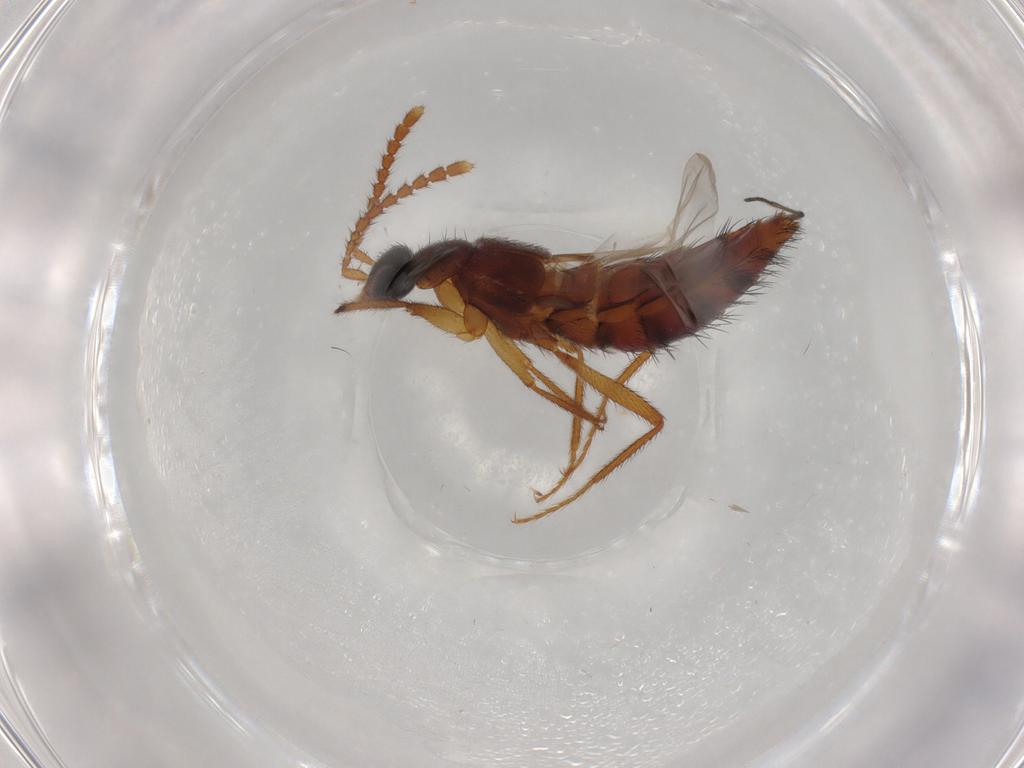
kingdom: Animalia
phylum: Arthropoda
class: Insecta
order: Coleoptera
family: Staphylinidae
